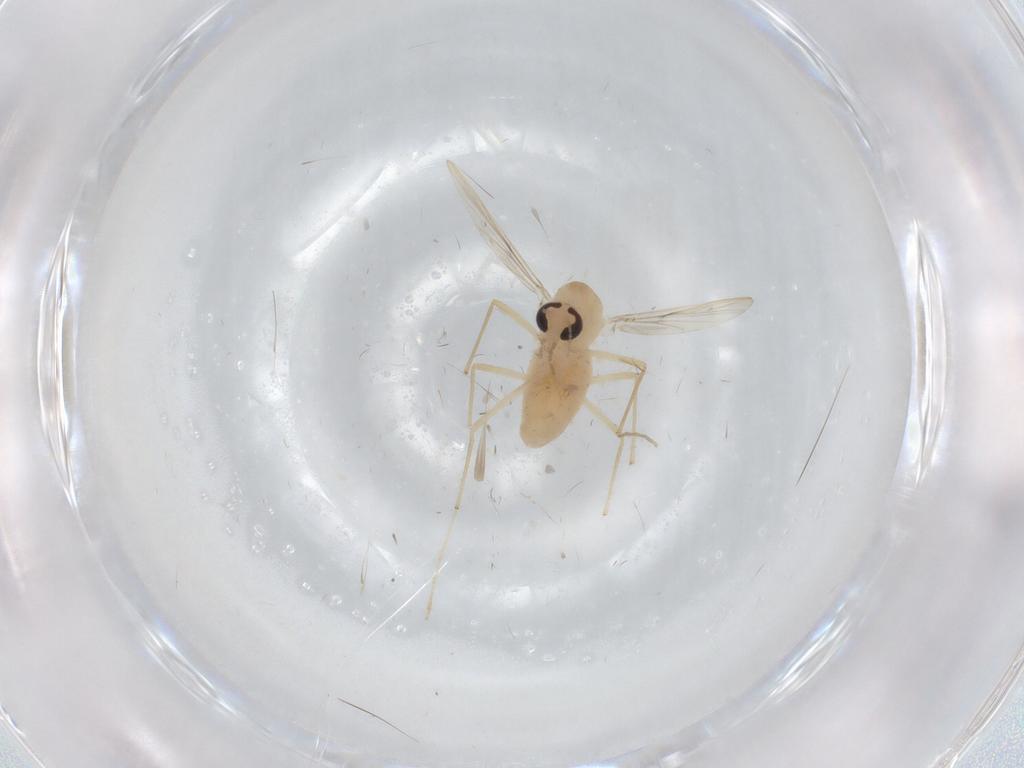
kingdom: Animalia
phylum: Arthropoda
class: Insecta
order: Diptera
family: Chironomidae
